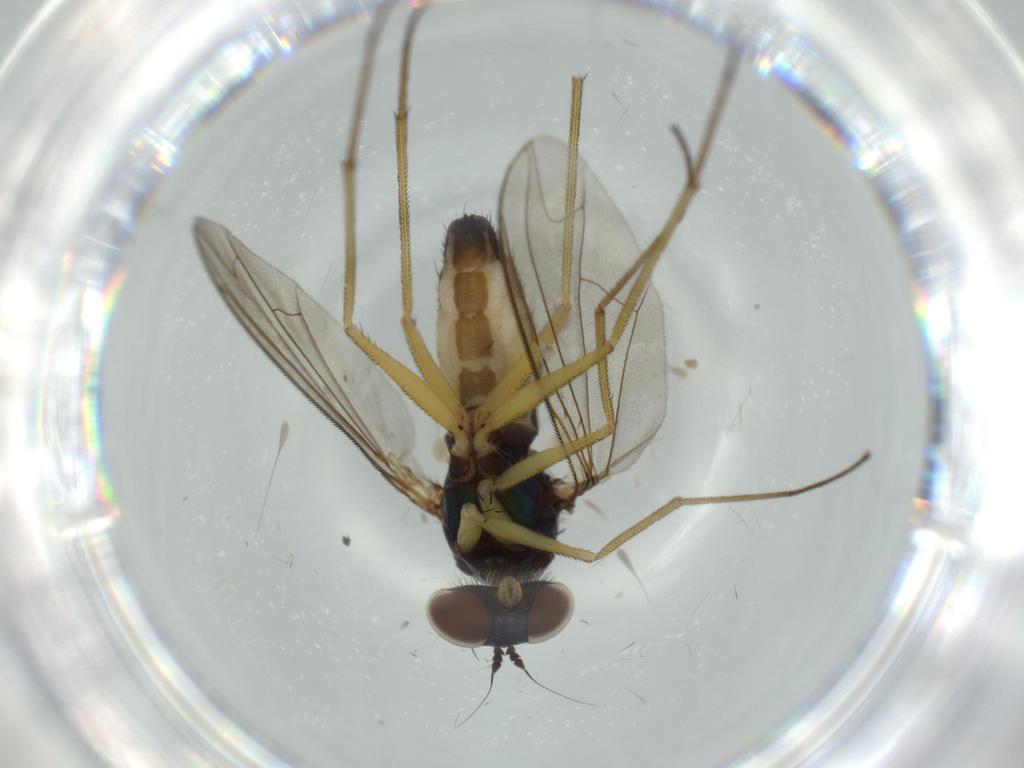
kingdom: Animalia
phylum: Arthropoda
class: Insecta
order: Diptera
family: Dolichopodidae
